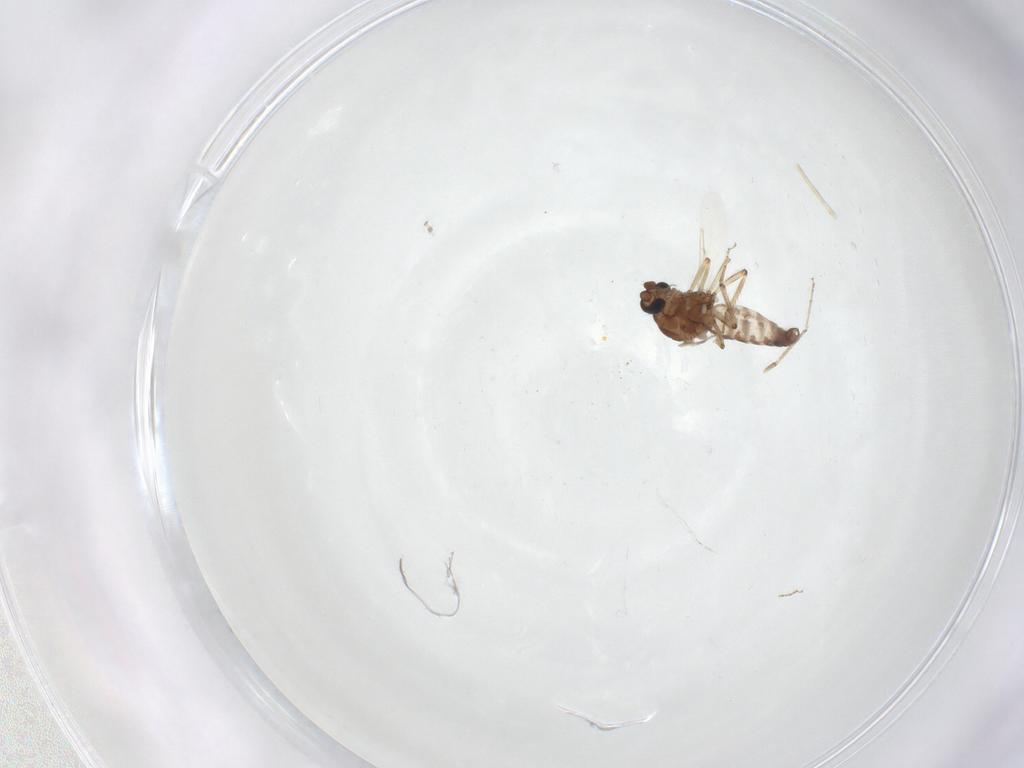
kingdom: Animalia
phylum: Arthropoda
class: Insecta
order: Diptera
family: Ceratopogonidae
